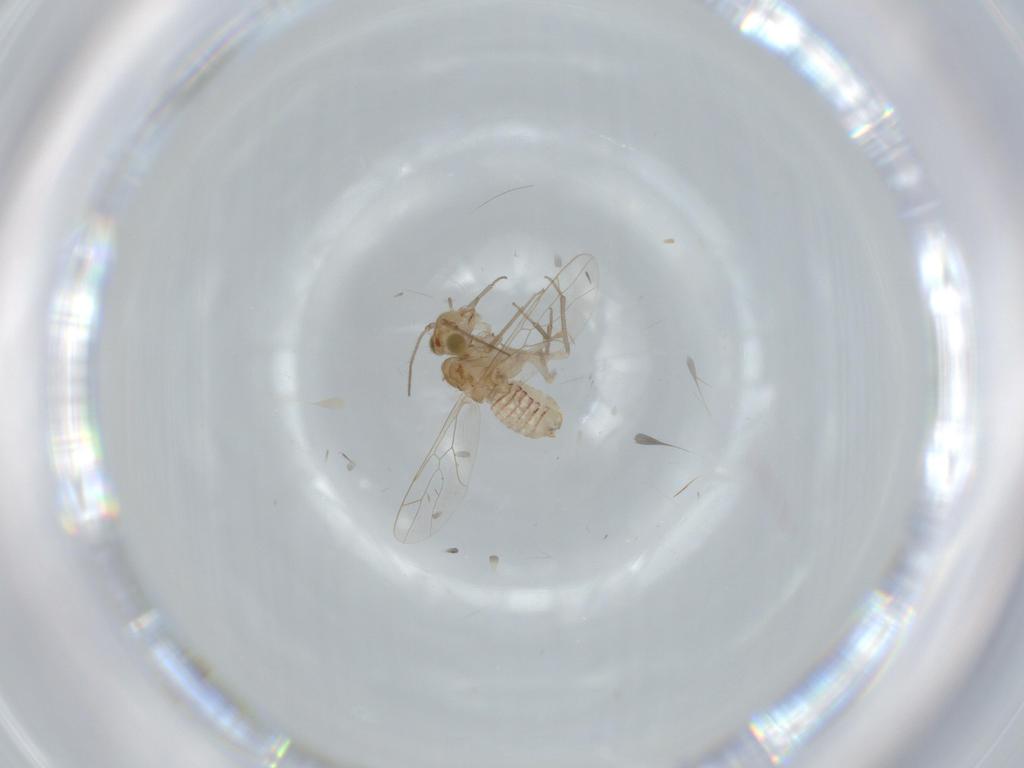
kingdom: Animalia
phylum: Arthropoda
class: Insecta
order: Psocodea
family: Lachesillidae
